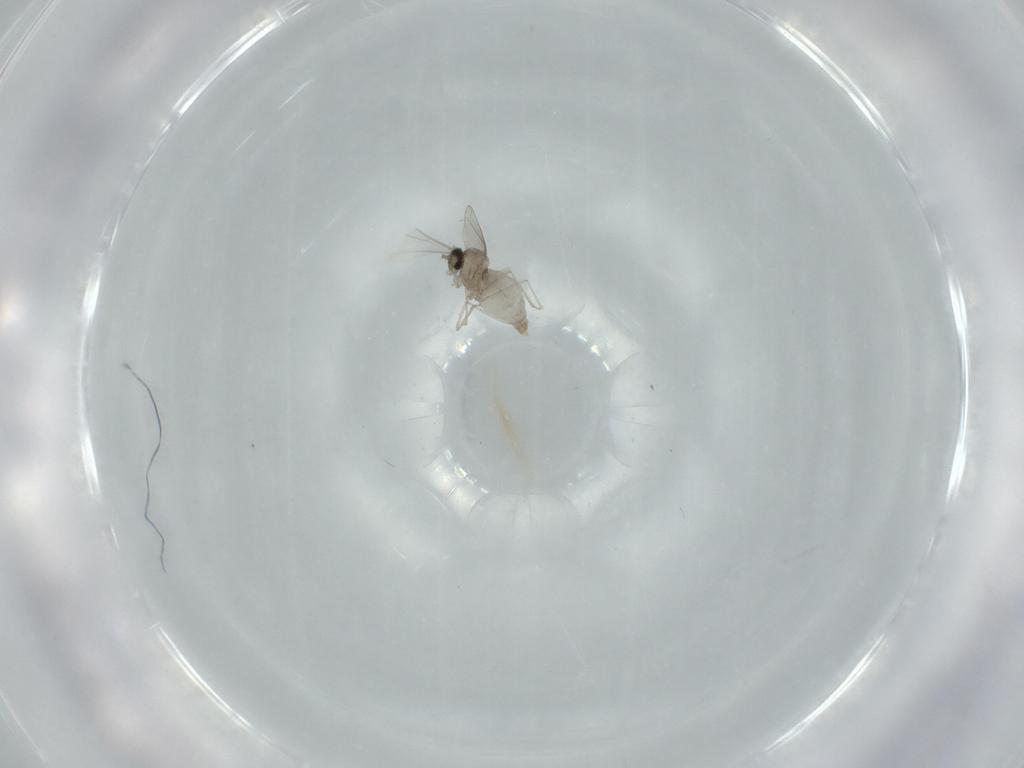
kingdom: Animalia
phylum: Arthropoda
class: Insecta
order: Diptera
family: Cecidomyiidae
